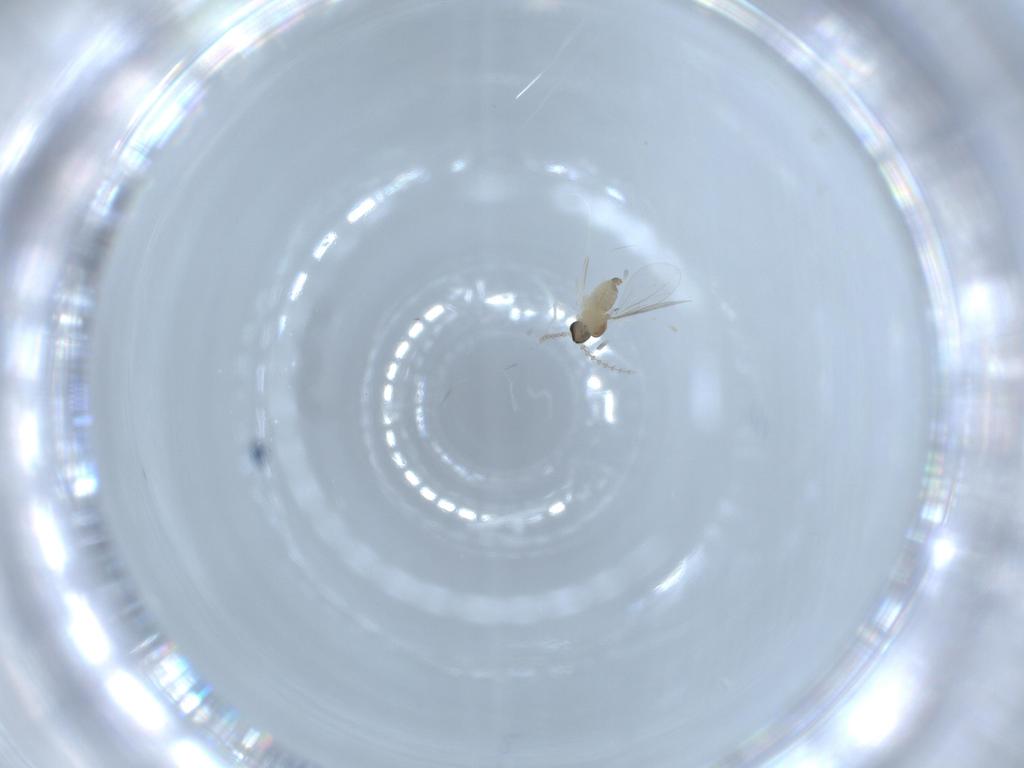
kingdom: Animalia
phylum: Arthropoda
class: Insecta
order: Diptera
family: Cecidomyiidae
